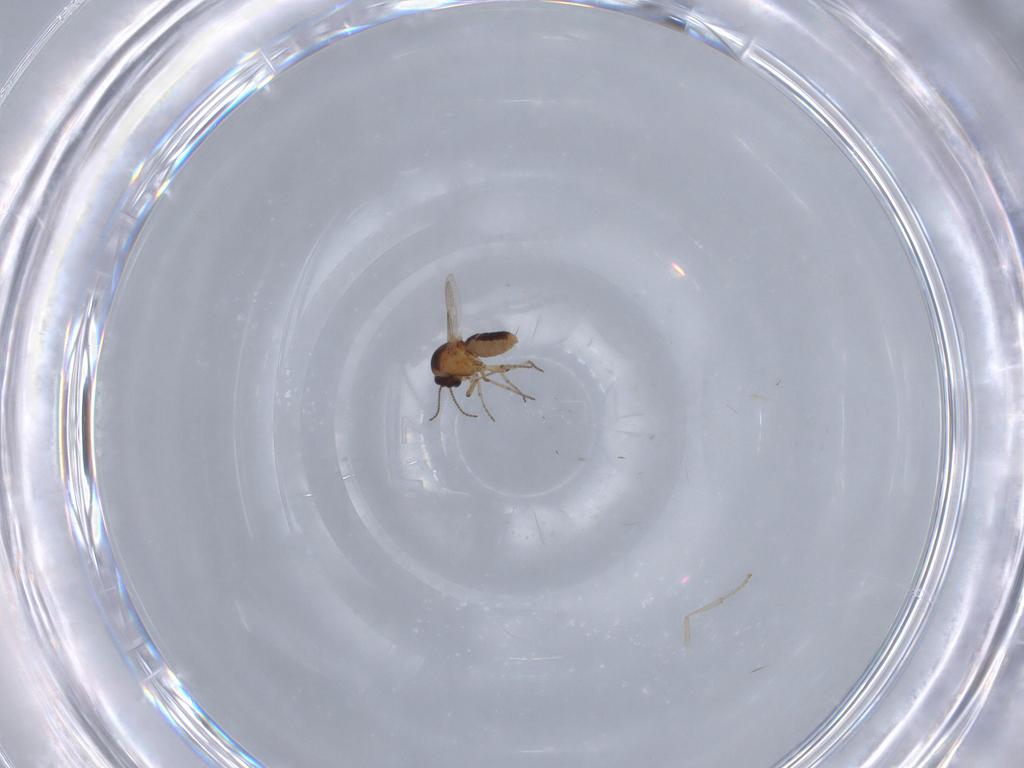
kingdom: Animalia
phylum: Arthropoda
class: Insecta
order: Diptera
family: Ceratopogonidae
